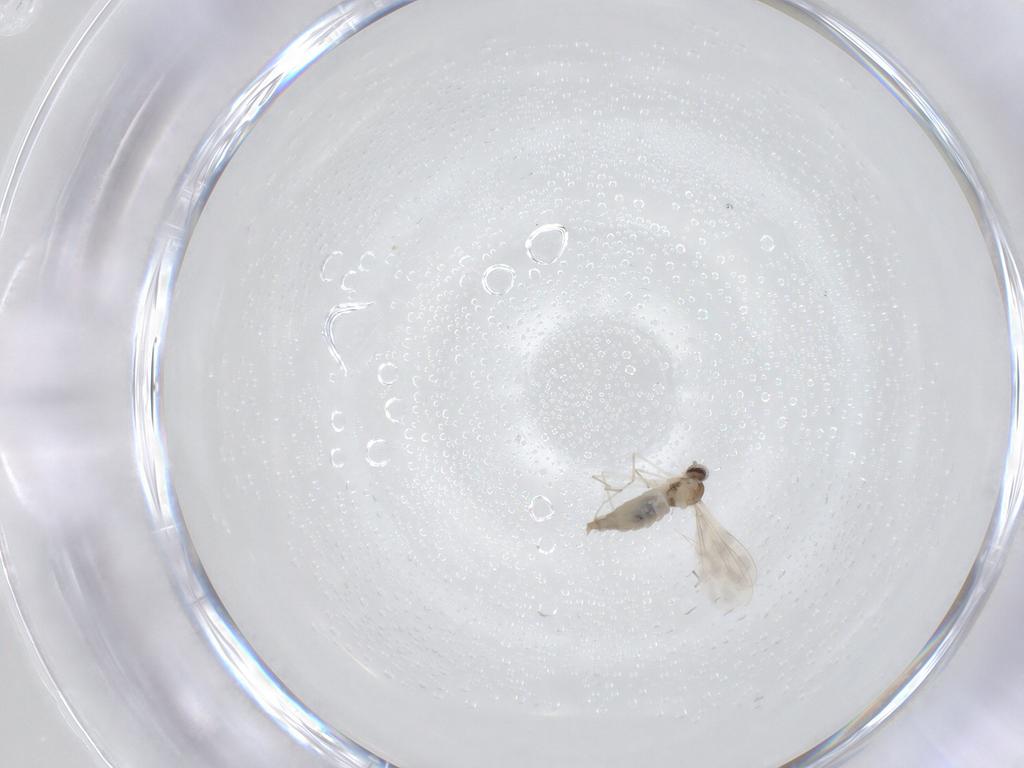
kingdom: Animalia
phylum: Arthropoda
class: Insecta
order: Diptera
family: Cecidomyiidae
